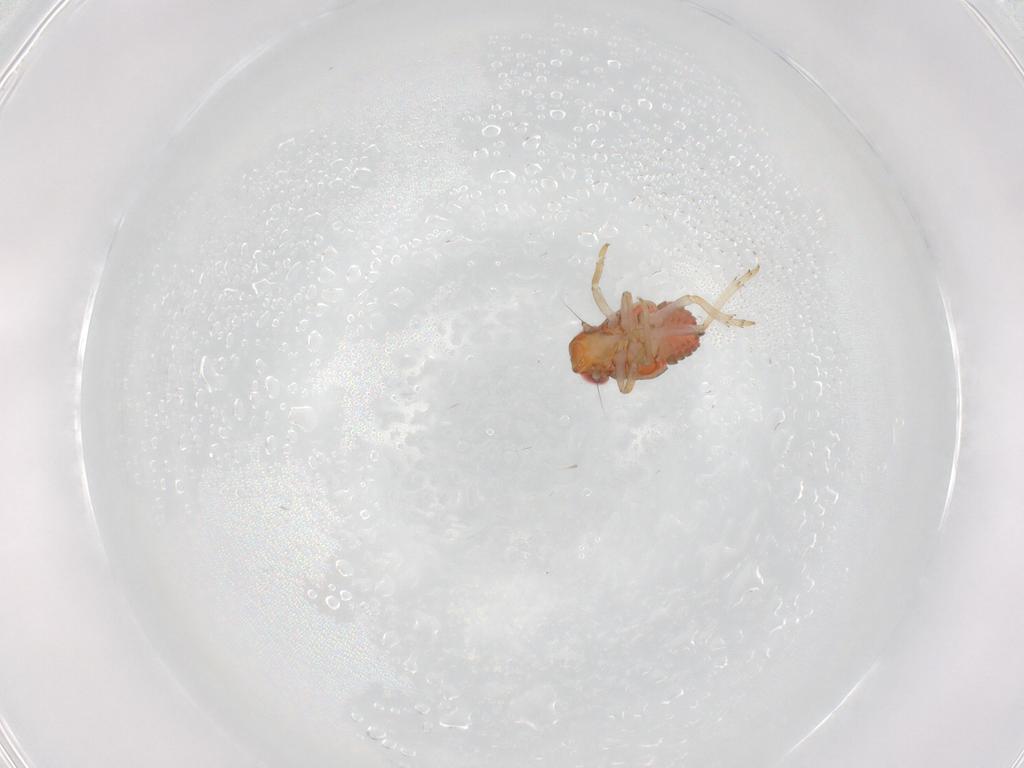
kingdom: Animalia
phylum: Arthropoda
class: Insecta
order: Hemiptera
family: Issidae
